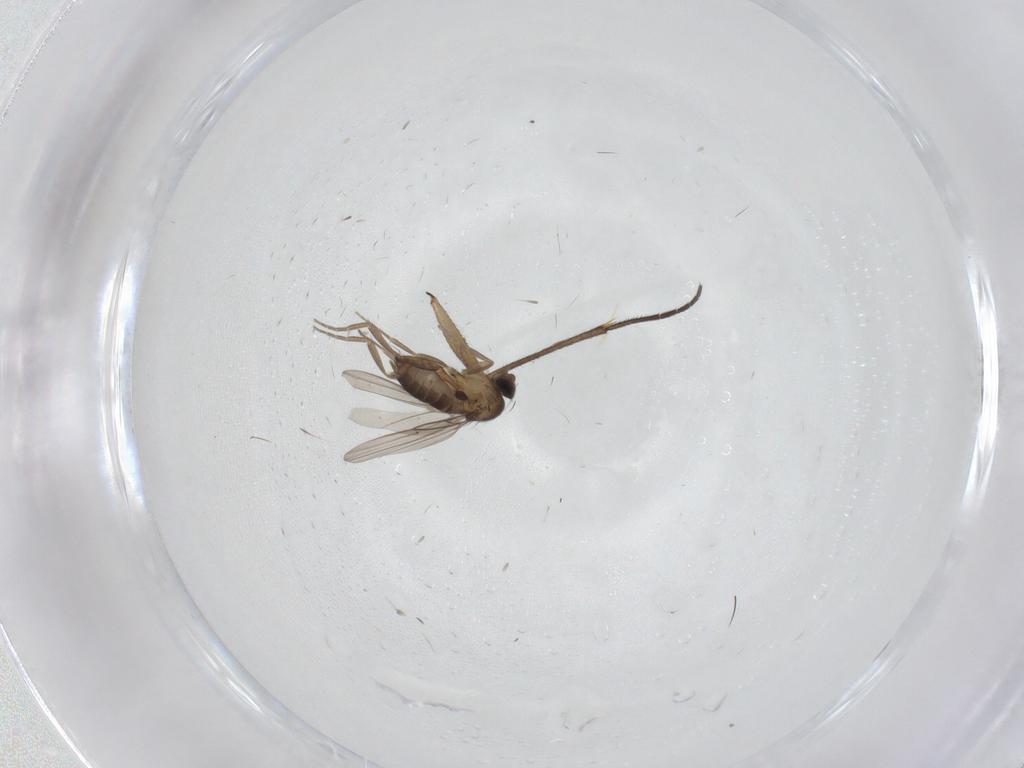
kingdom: Animalia
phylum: Arthropoda
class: Insecta
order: Diptera
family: Sciaridae
